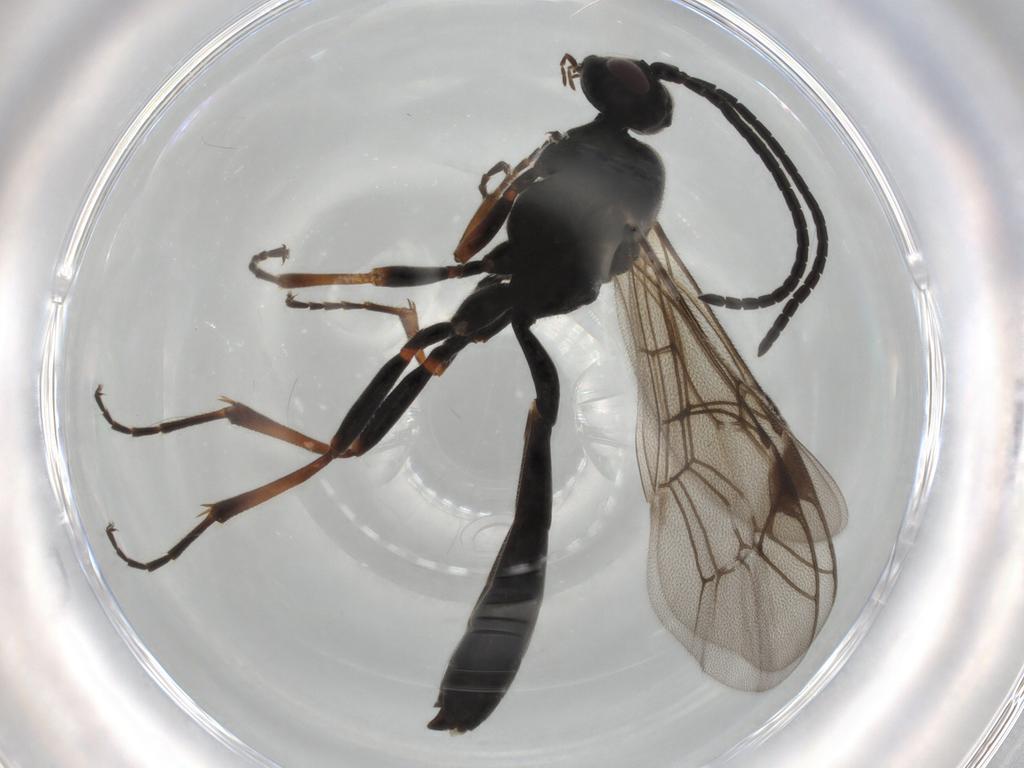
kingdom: Animalia
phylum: Arthropoda
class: Insecta
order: Hymenoptera
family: Ichneumonidae
